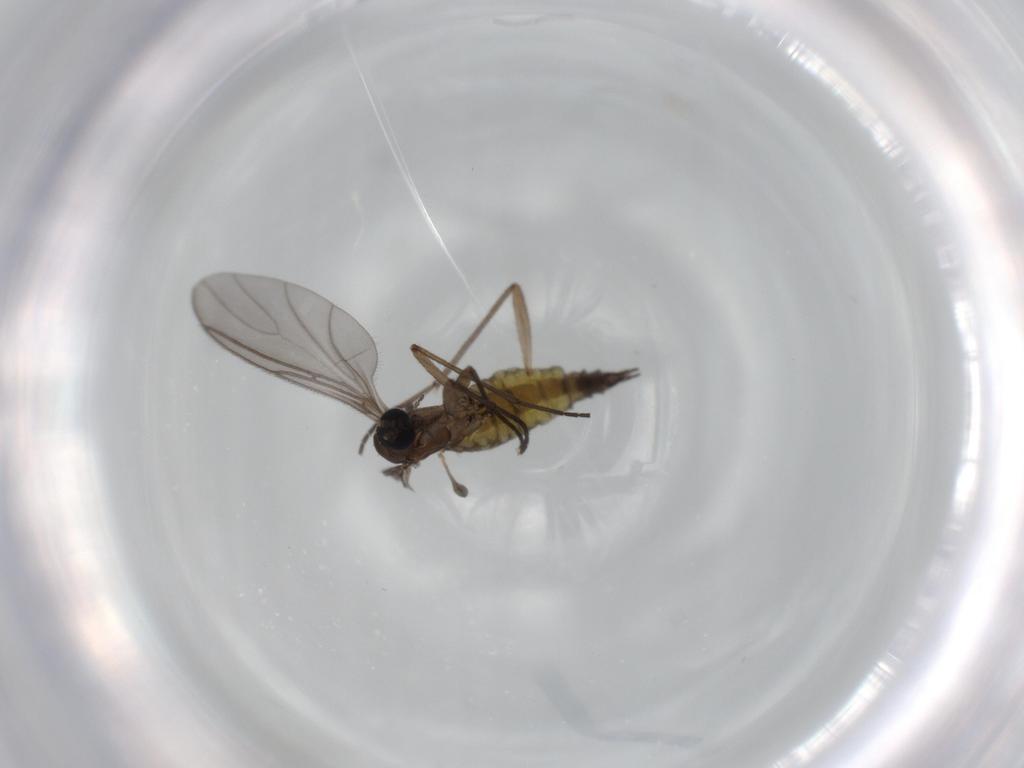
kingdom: Animalia
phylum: Arthropoda
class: Insecta
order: Diptera
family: Sciaridae
